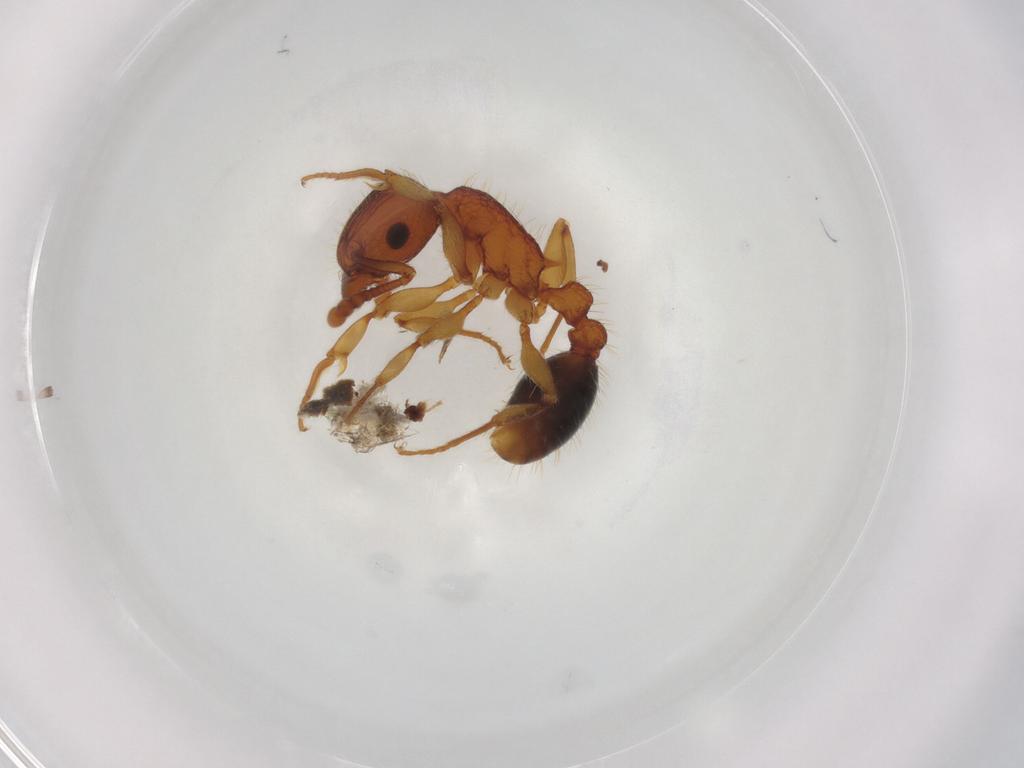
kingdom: Animalia
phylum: Arthropoda
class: Insecta
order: Hymenoptera
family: Formicidae
